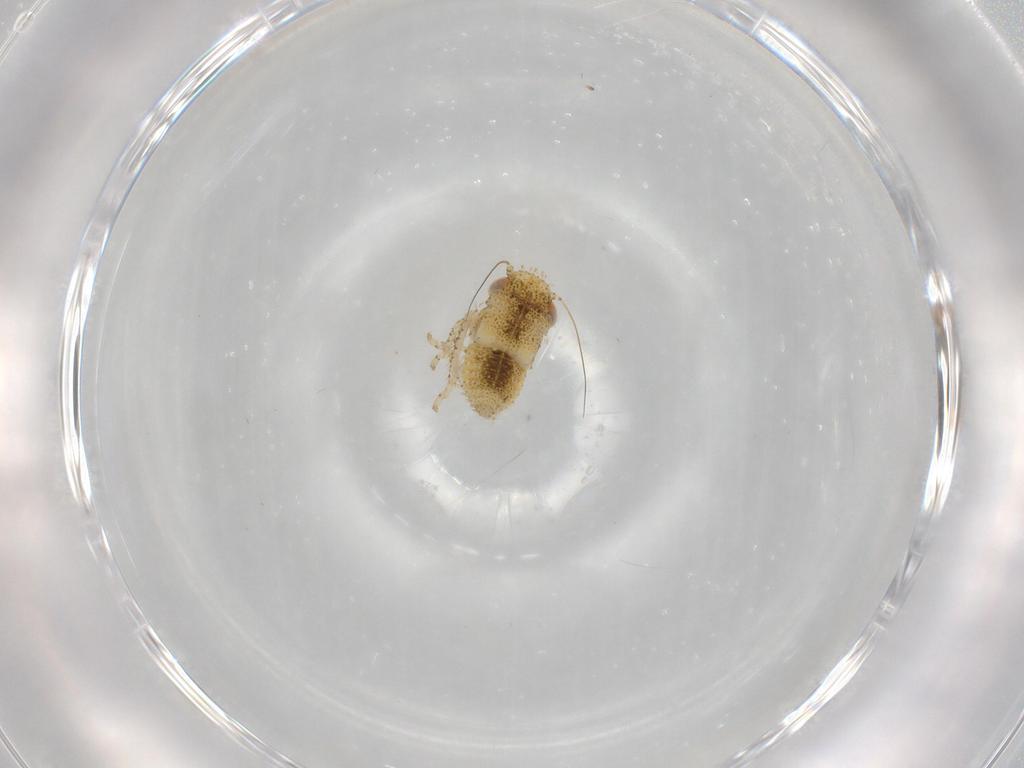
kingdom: Animalia
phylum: Arthropoda
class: Insecta
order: Hemiptera
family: Cicadellidae
